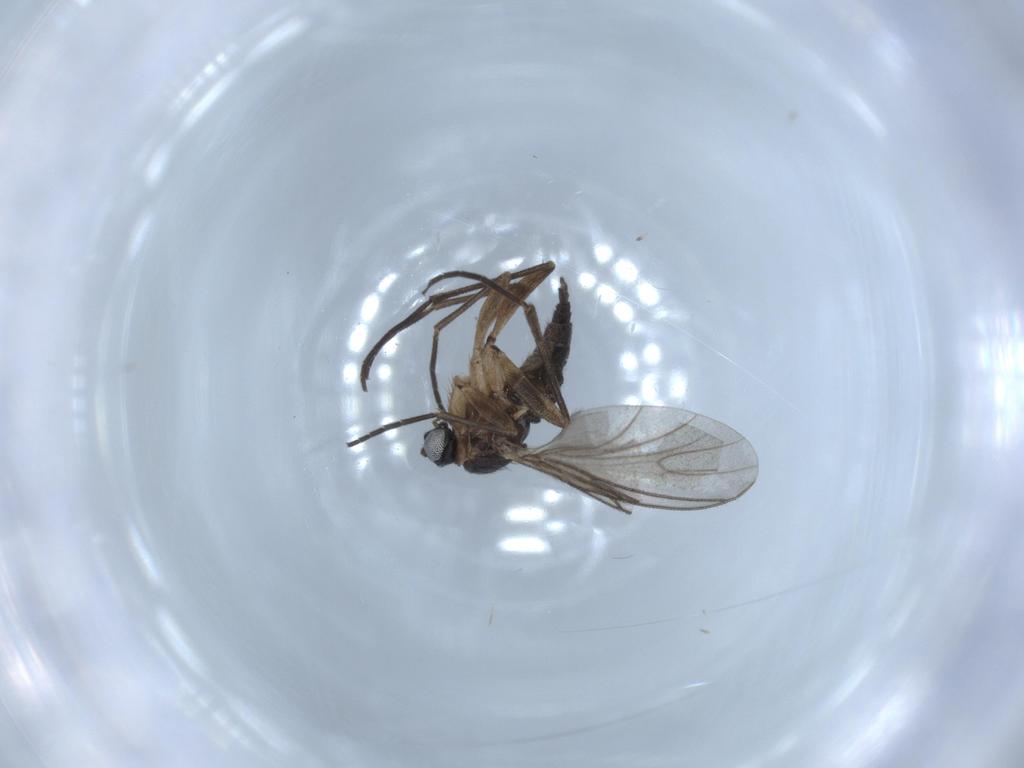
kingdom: Animalia
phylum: Arthropoda
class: Insecta
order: Diptera
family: Sciaridae
